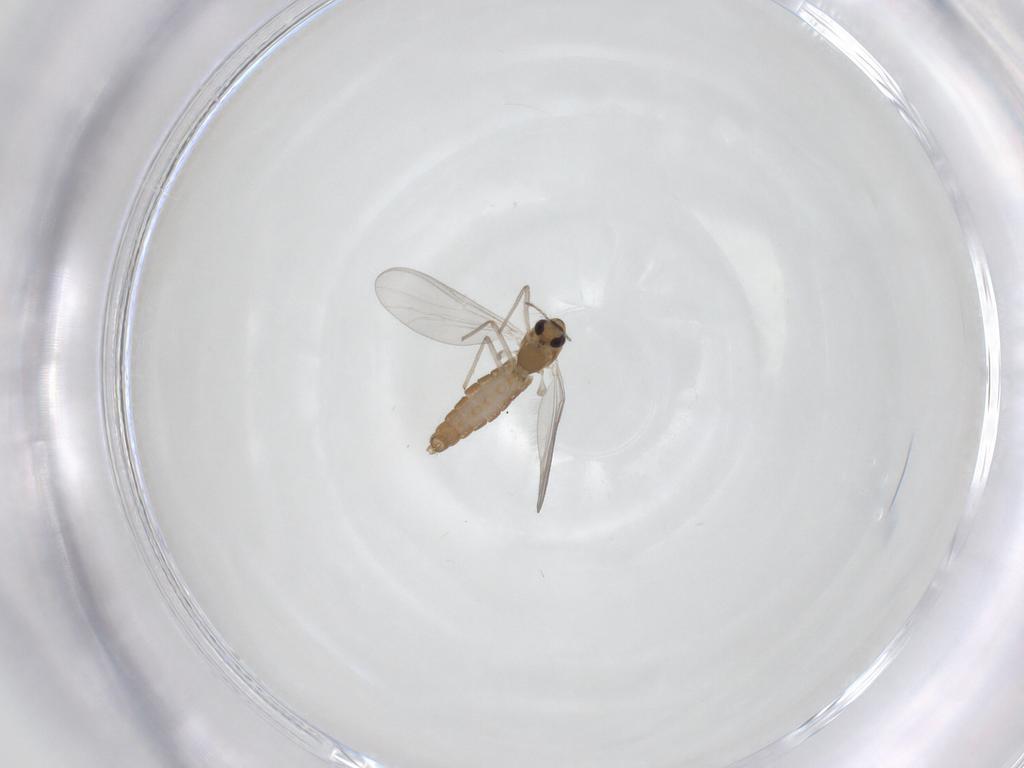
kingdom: Animalia
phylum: Arthropoda
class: Insecta
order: Diptera
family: Chironomidae
